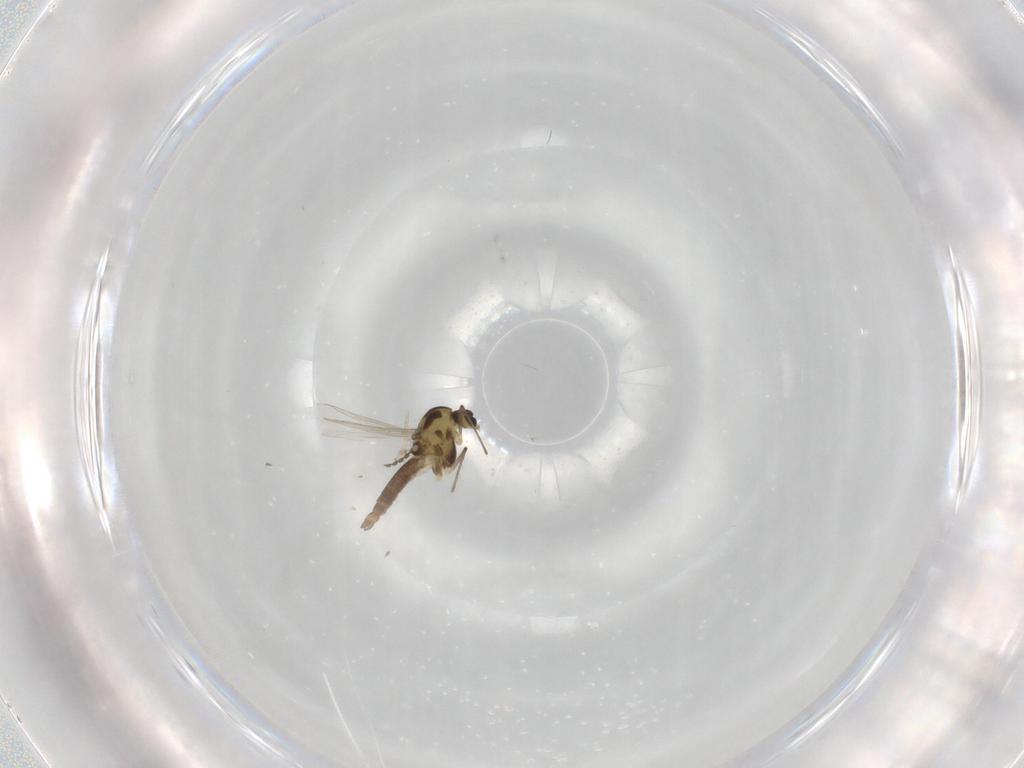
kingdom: Animalia
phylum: Arthropoda
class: Insecta
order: Diptera
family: Chironomidae
